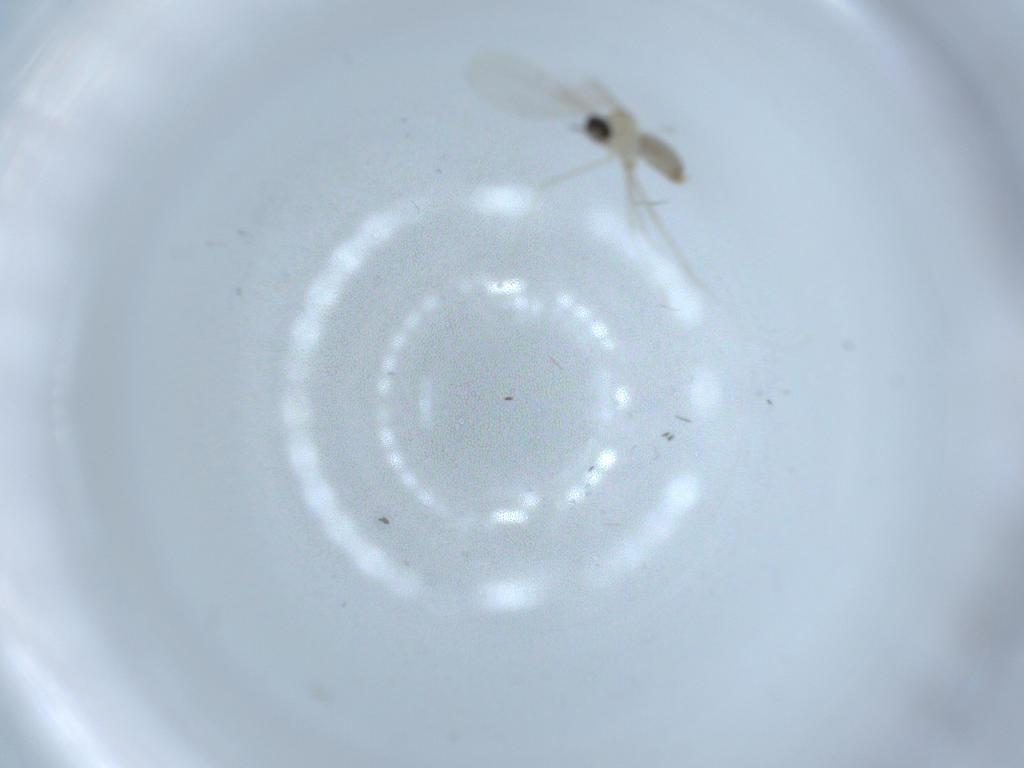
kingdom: Animalia
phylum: Arthropoda
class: Insecta
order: Diptera
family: Cecidomyiidae
